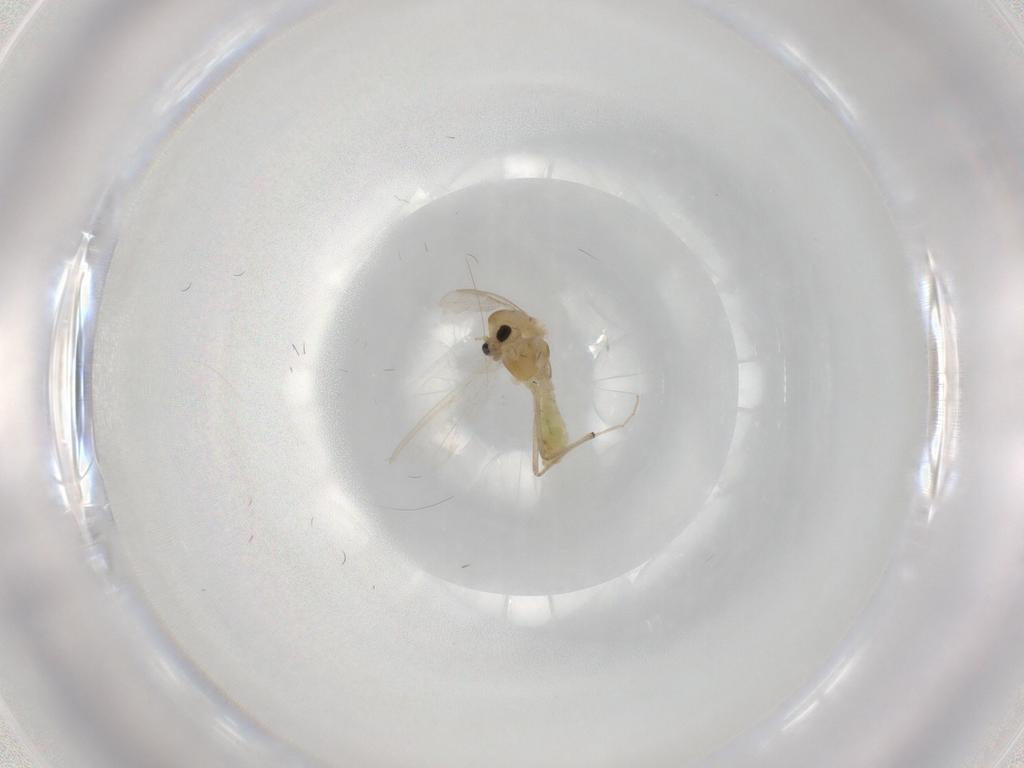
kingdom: Animalia
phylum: Arthropoda
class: Insecta
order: Diptera
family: Chironomidae
